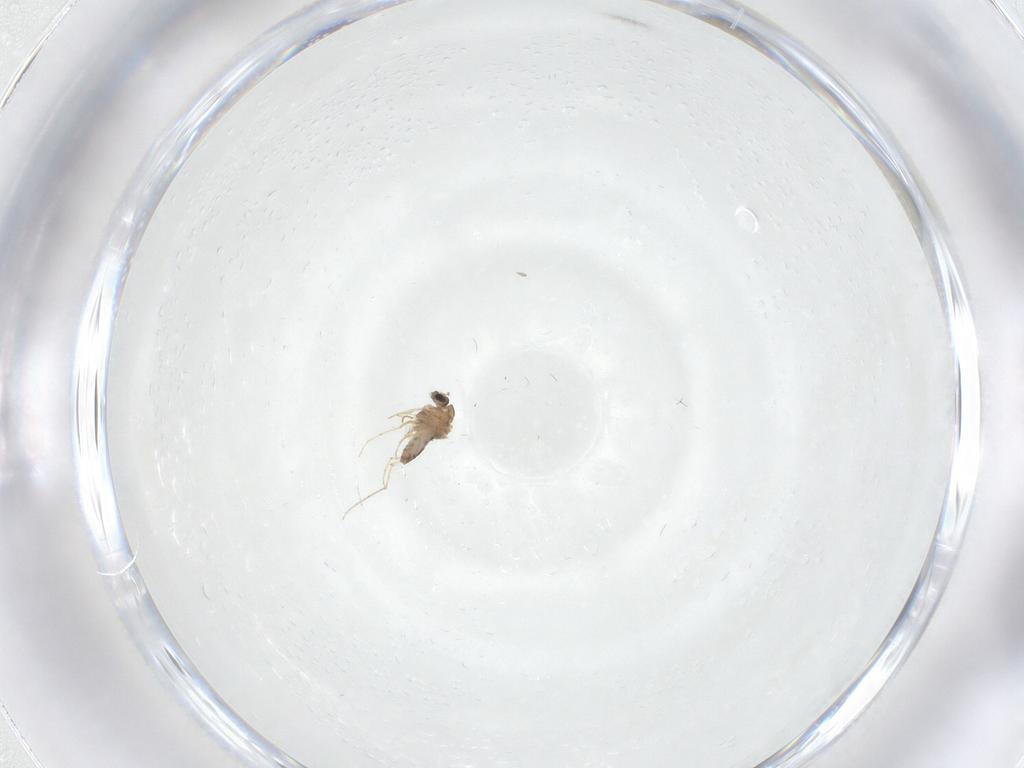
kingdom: Animalia
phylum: Arthropoda
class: Insecta
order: Diptera
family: Chironomidae
